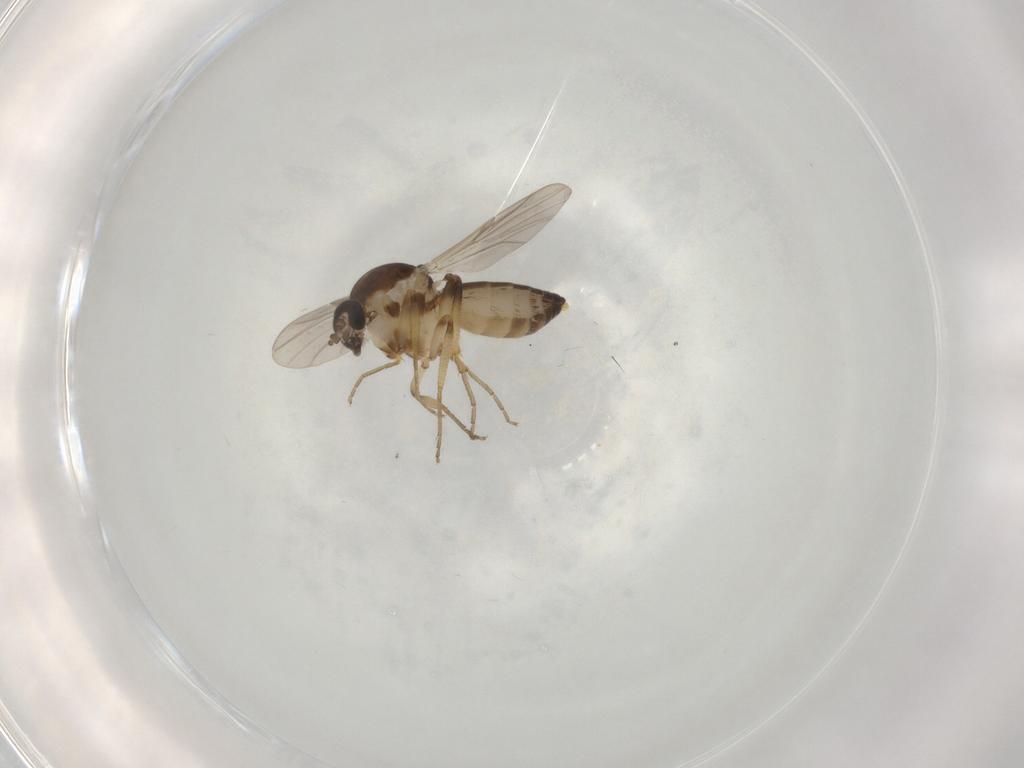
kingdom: Animalia
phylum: Arthropoda
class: Insecta
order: Diptera
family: Ceratopogonidae
